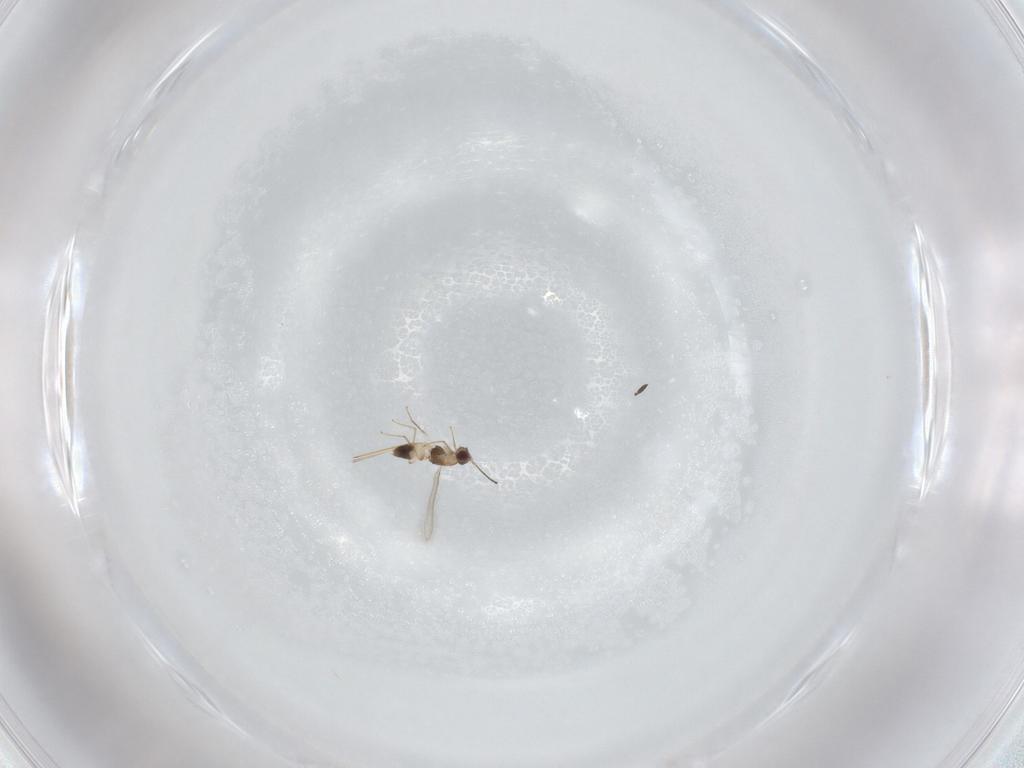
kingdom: Animalia
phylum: Arthropoda
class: Insecta
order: Hymenoptera
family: Mymaridae
